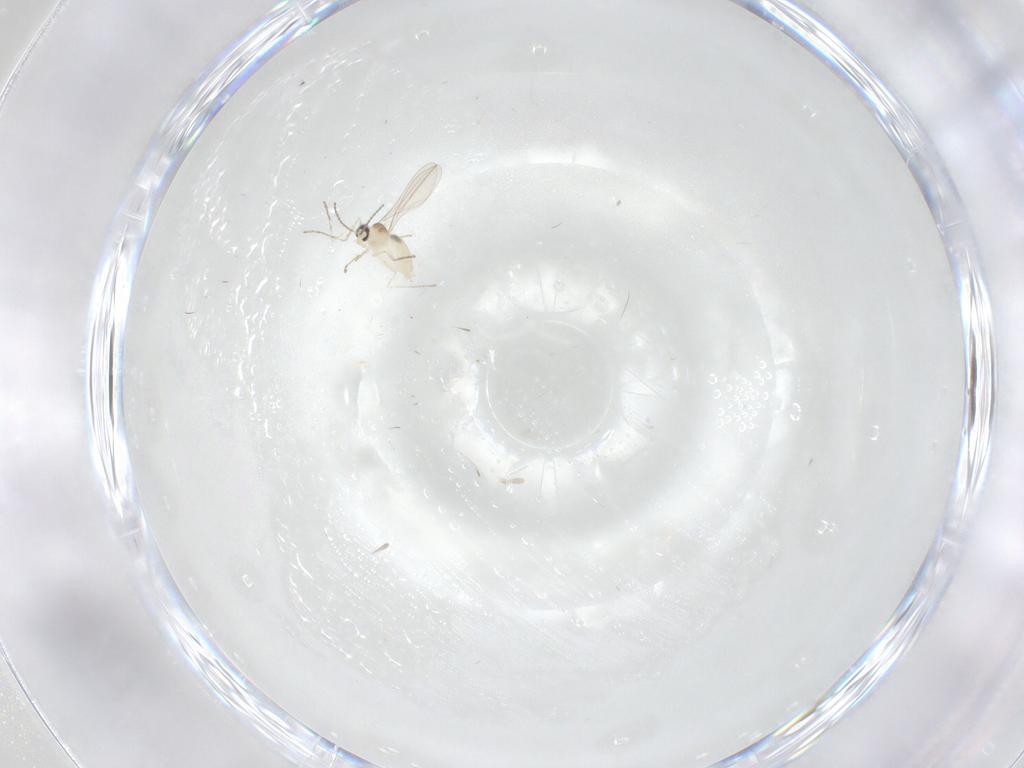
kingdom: Animalia
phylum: Arthropoda
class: Insecta
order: Diptera
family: Cecidomyiidae
